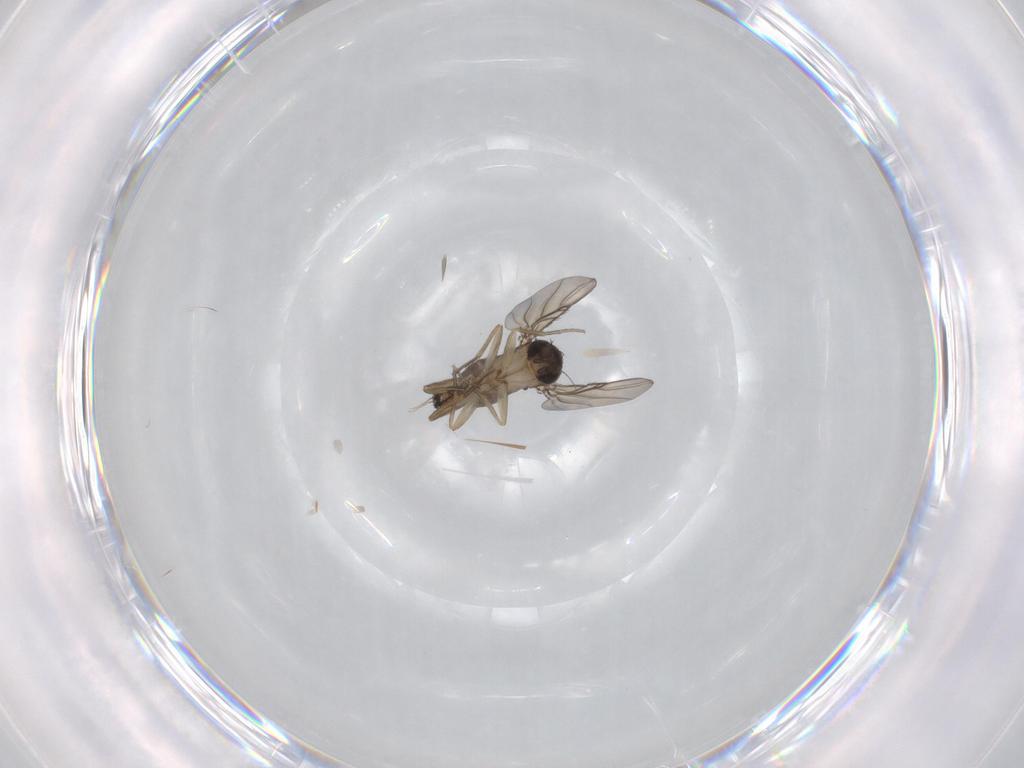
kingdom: Animalia
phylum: Arthropoda
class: Insecta
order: Diptera
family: Phoridae
